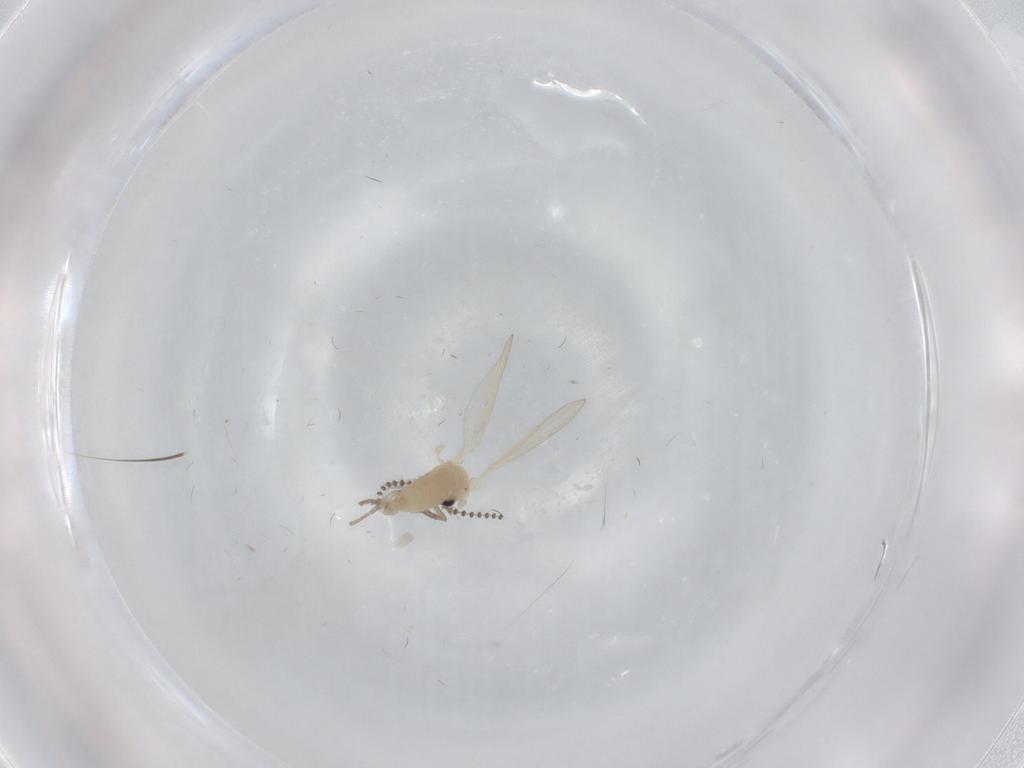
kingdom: Animalia
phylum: Arthropoda
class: Insecta
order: Diptera
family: Psychodidae
